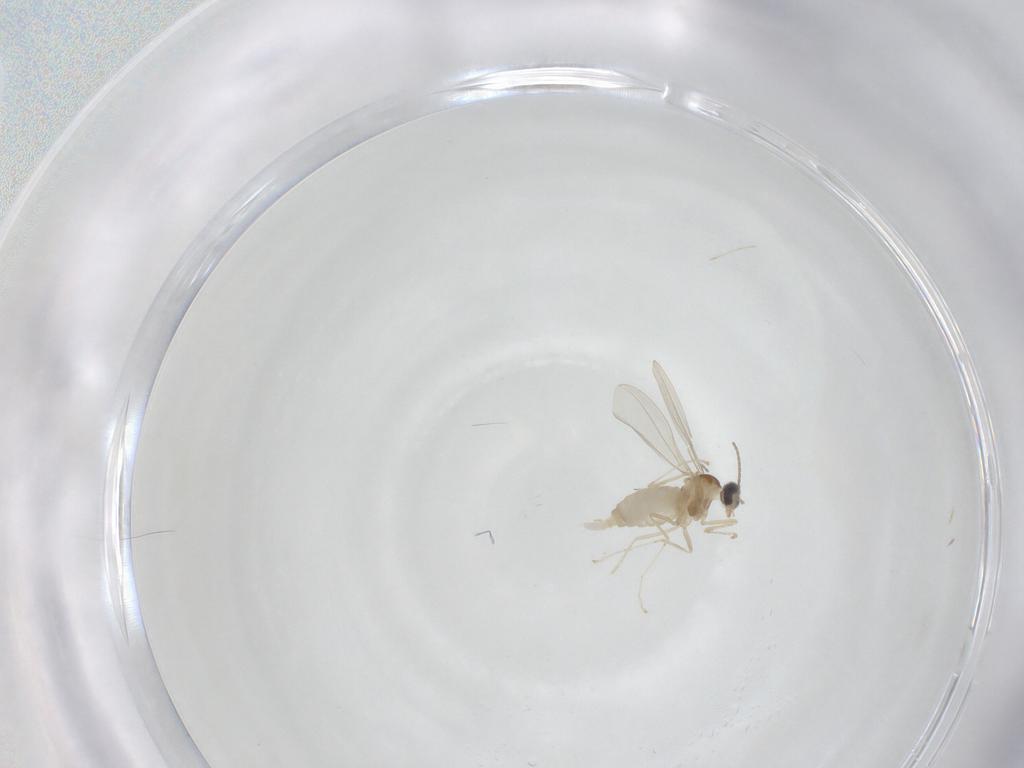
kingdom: Animalia
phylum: Arthropoda
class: Insecta
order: Diptera
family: Cecidomyiidae
